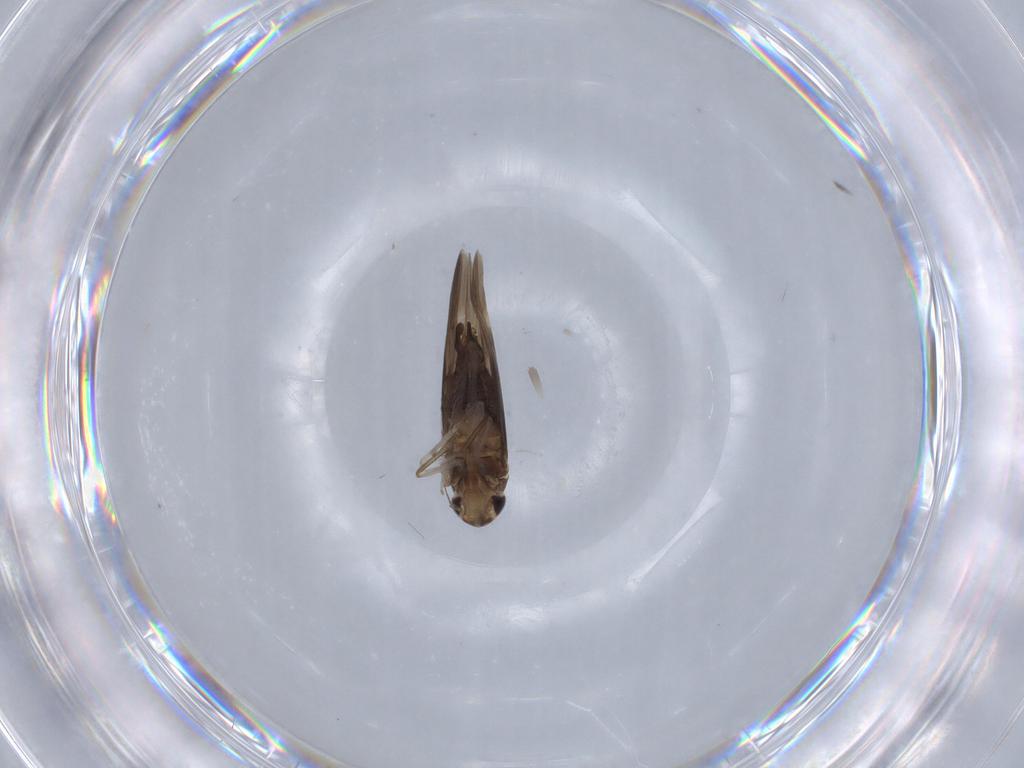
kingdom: Animalia
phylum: Arthropoda
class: Insecta
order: Hemiptera
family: Cicadellidae
